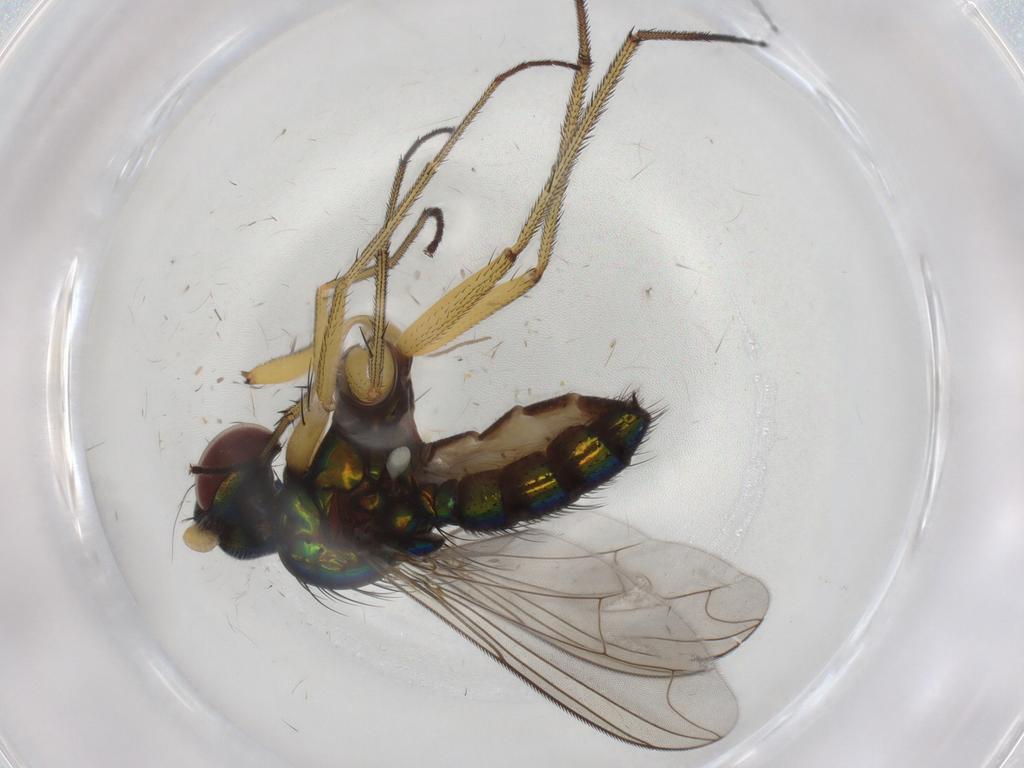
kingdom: Animalia
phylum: Arthropoda
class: Insecta
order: Diptera
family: Dolichopodidae
